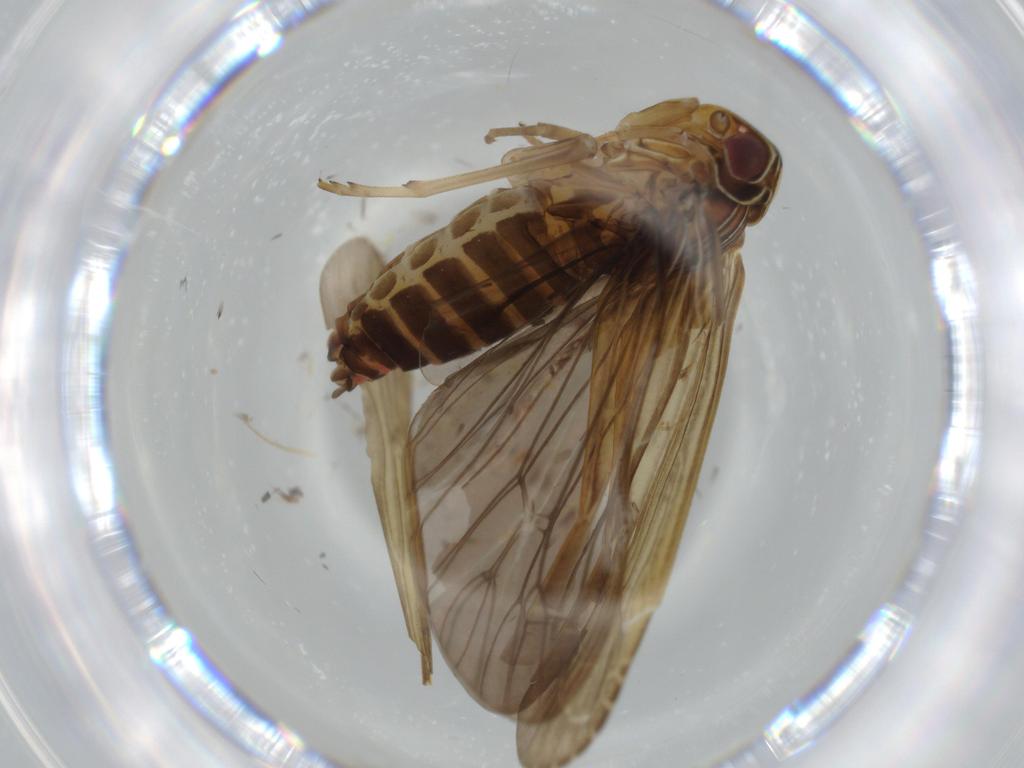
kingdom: Animalia
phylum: Arthropoda
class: Insecta
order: Hemiptera
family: Achilidae
